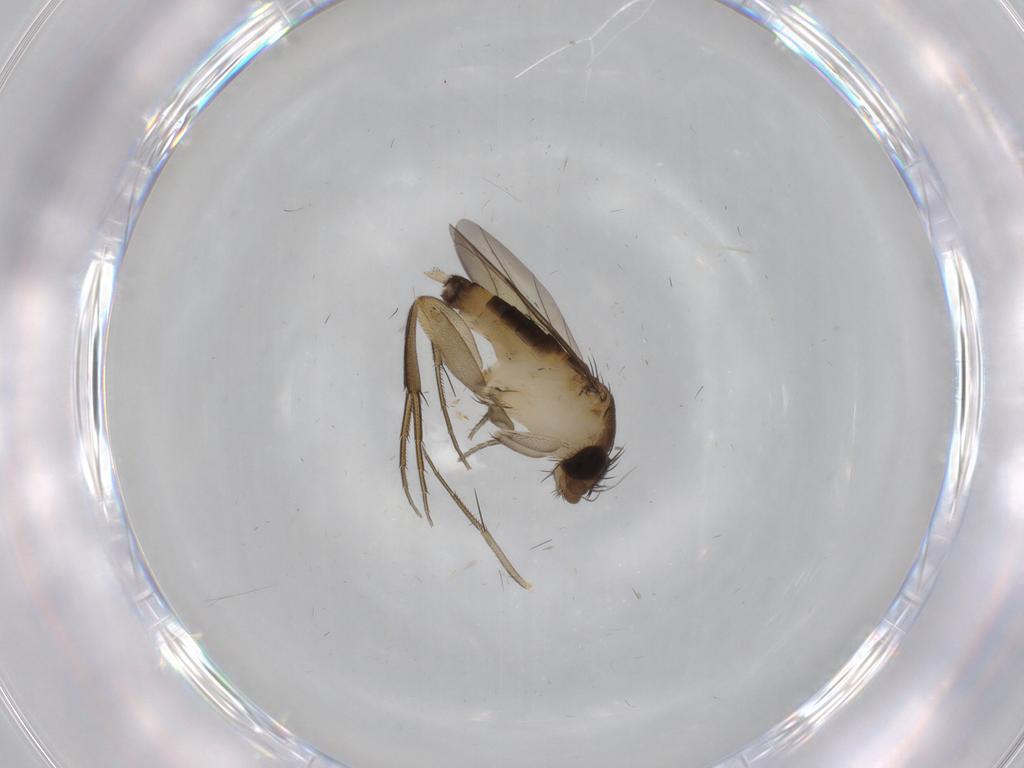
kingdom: Animalia
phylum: Arthropoda
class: Insecta
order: Diptera
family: Cecidomyiidae
